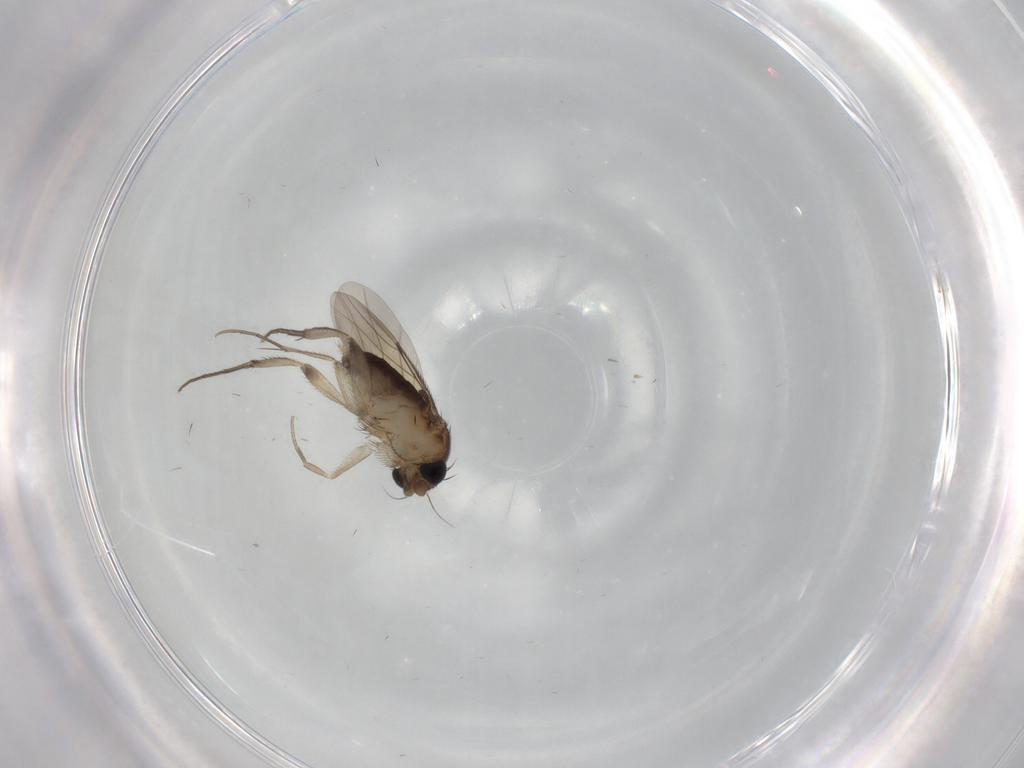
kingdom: Animalia
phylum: Arthropoda
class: Insecta
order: Diptera
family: Phoridae
